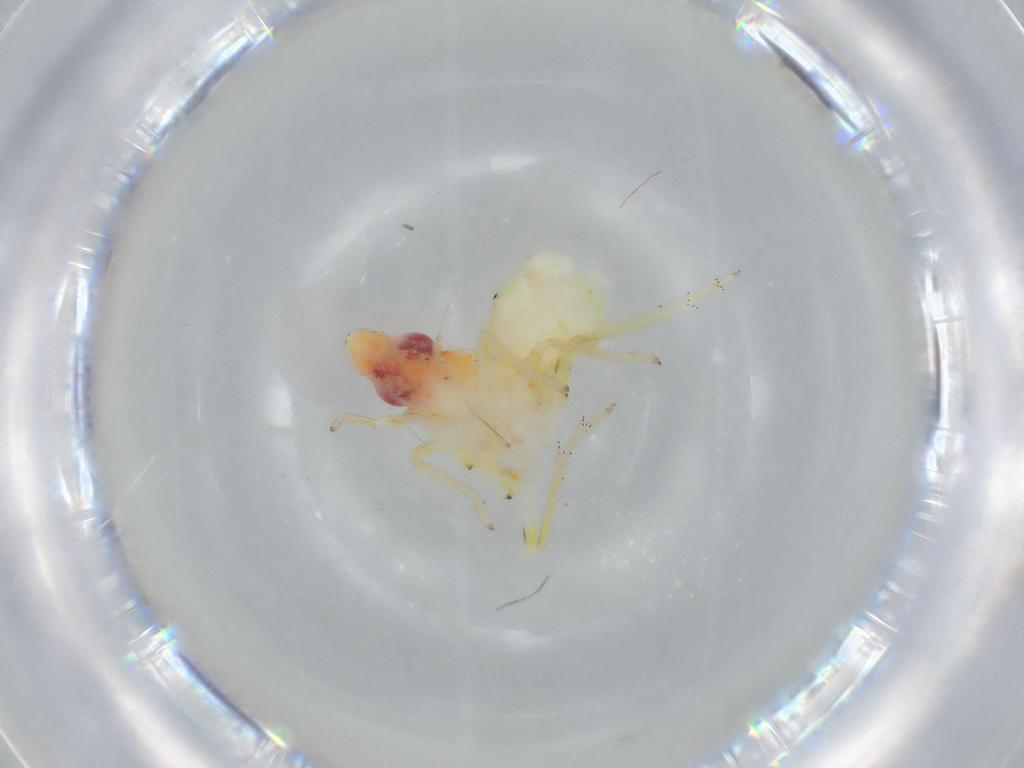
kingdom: Animalia
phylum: Arthropoda
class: Insecta
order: Hemiptera
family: Tropiduchidae
